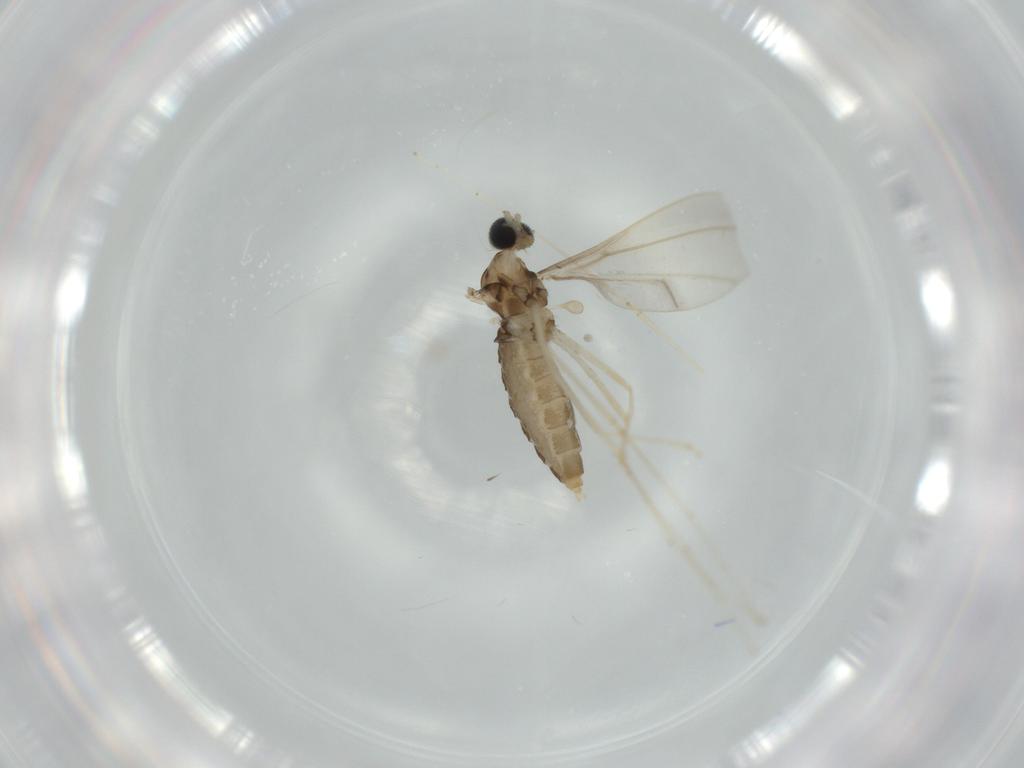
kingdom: Animalia
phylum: Arthropoda
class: Insecta
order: Diptera
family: Cecidomyiidae
